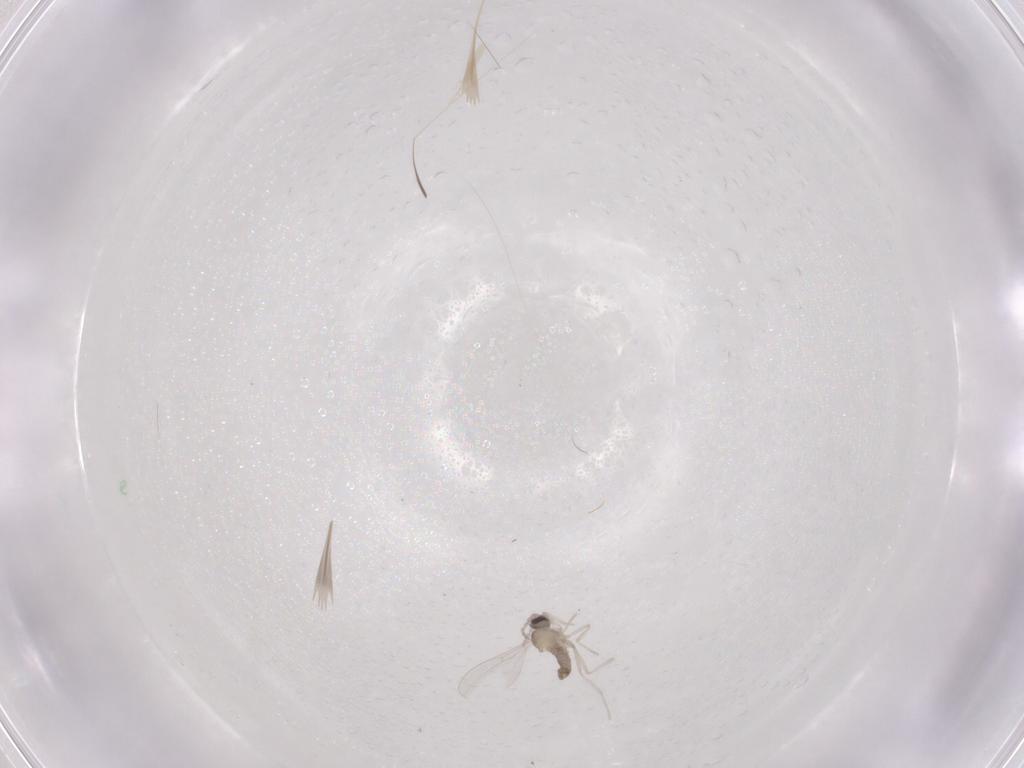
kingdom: Animalia
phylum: Arthropoda
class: Insecta
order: Diptera
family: Cecidomyiidae
